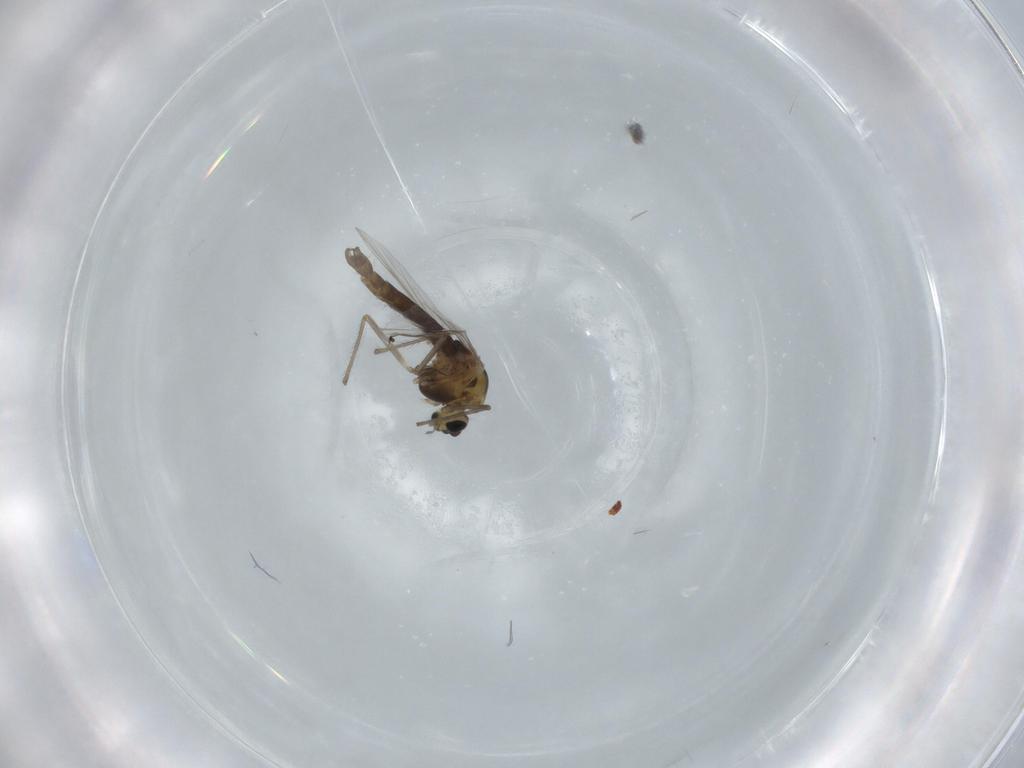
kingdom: Animalia
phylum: Arthropoda
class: Insecta
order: Diptera
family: Chironomidae
